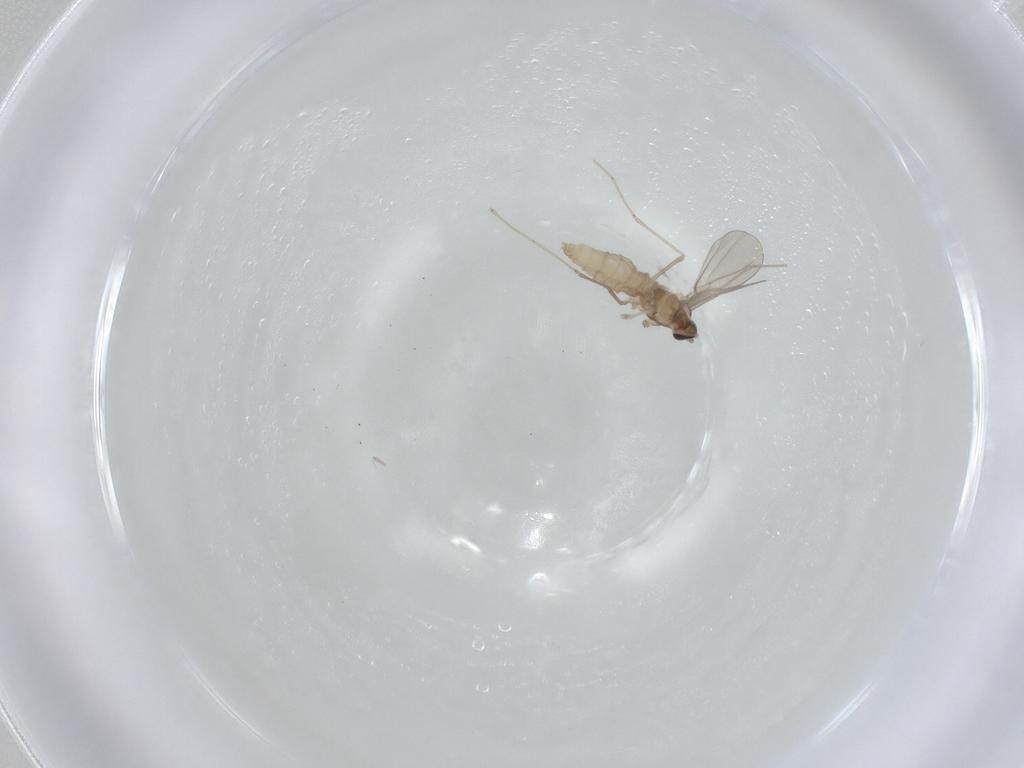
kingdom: Animalia
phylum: Arthropoda
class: Insecta
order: Diptera
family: Cecidomyiidae
